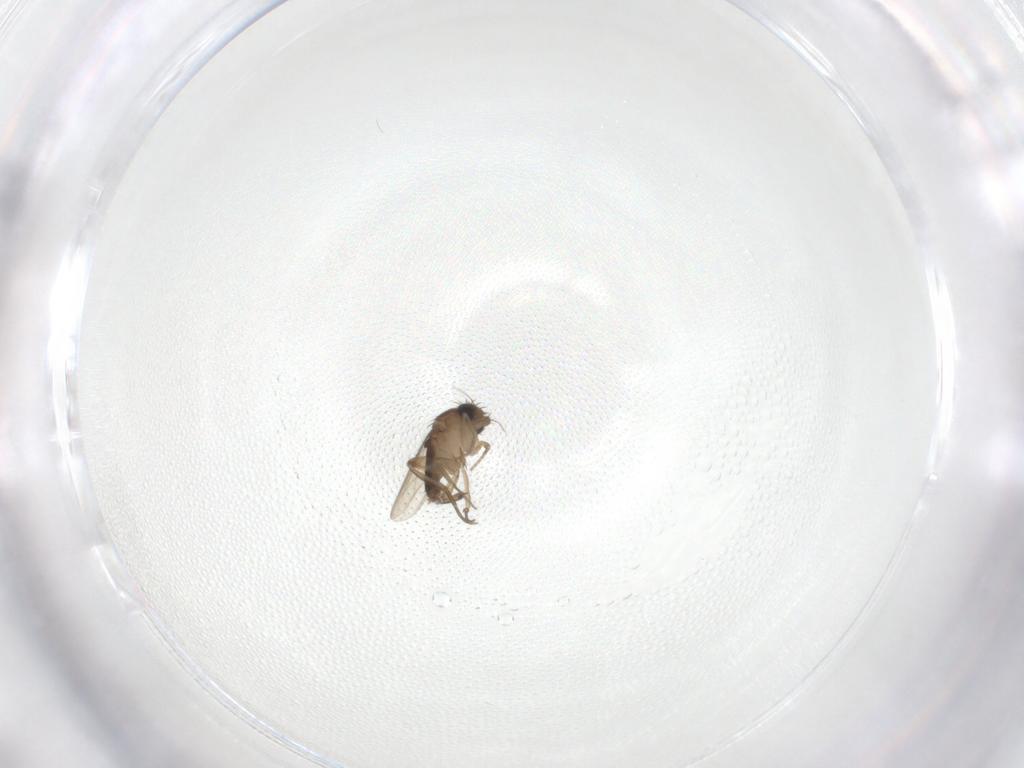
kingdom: Animalia
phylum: Arthropoda
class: Insecta
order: Diptera
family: Phoridae
